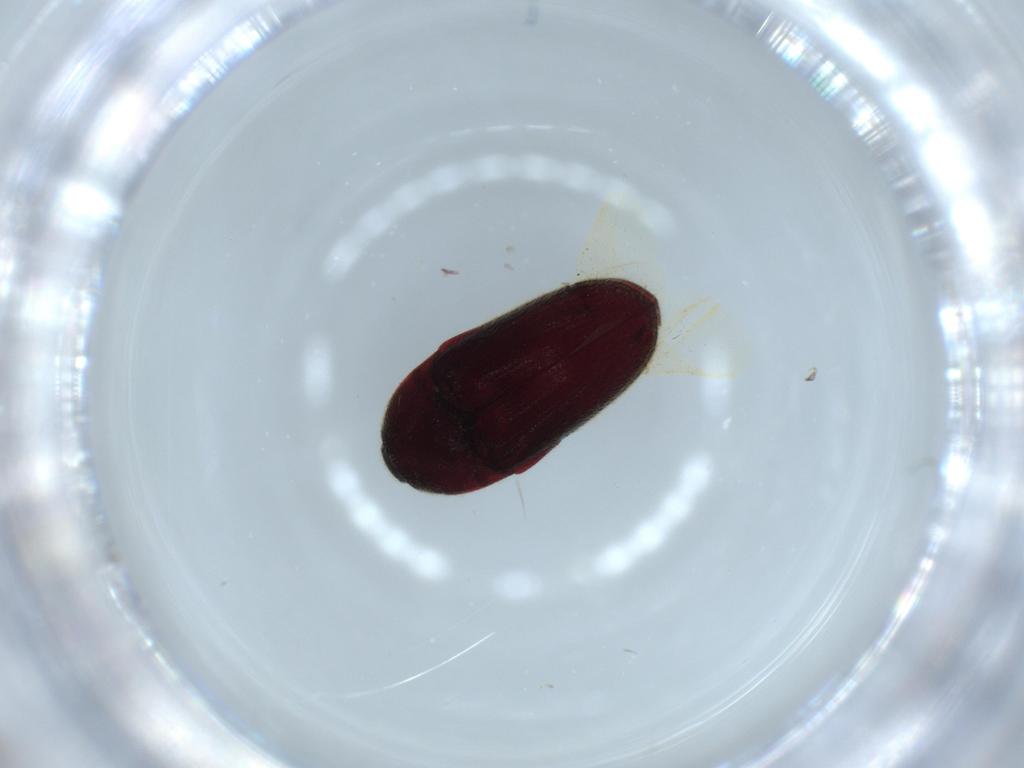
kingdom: Animalia
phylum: Arthropoda
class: Insecta
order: Coleoptera
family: Throscidae
